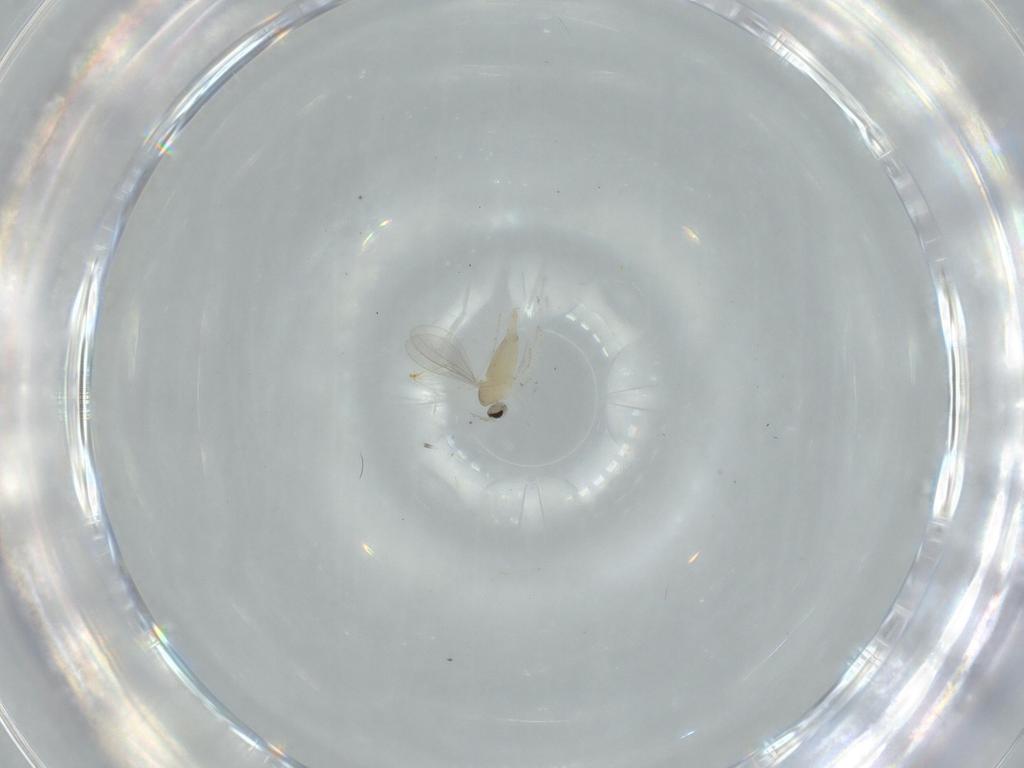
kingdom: Animalia
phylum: Arthropoda
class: Insecta
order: Diptera
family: Cecidomyiidae
